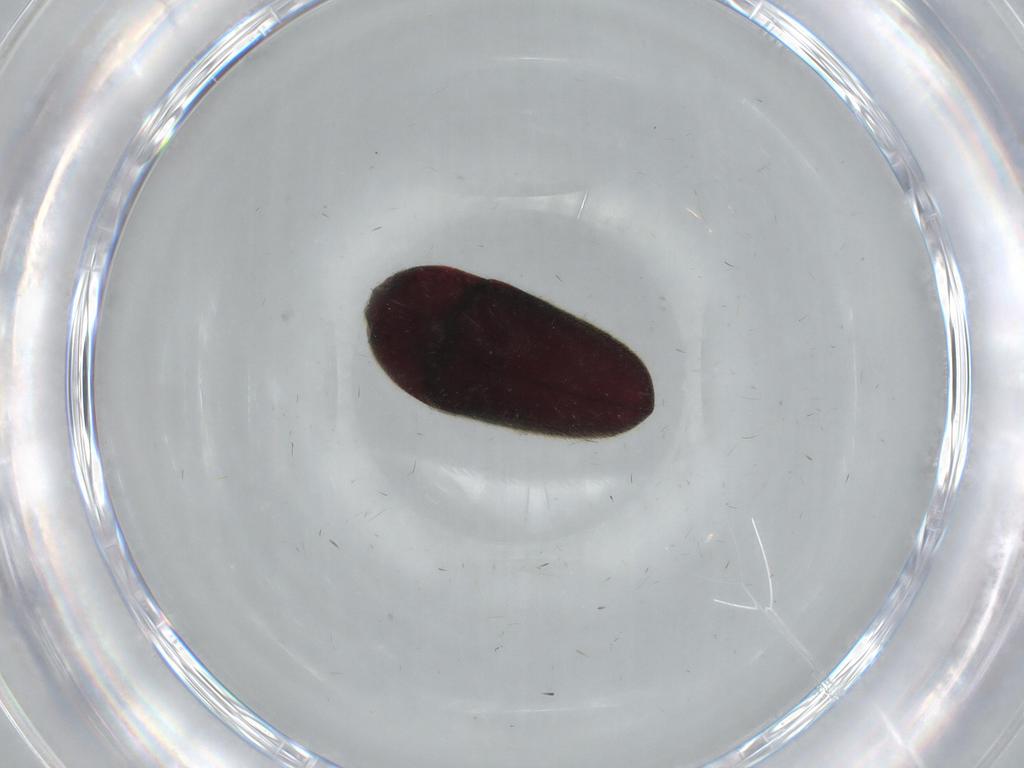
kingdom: Animalia
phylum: Arthropoda
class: Insecta
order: Coleoptera
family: Throscidae
